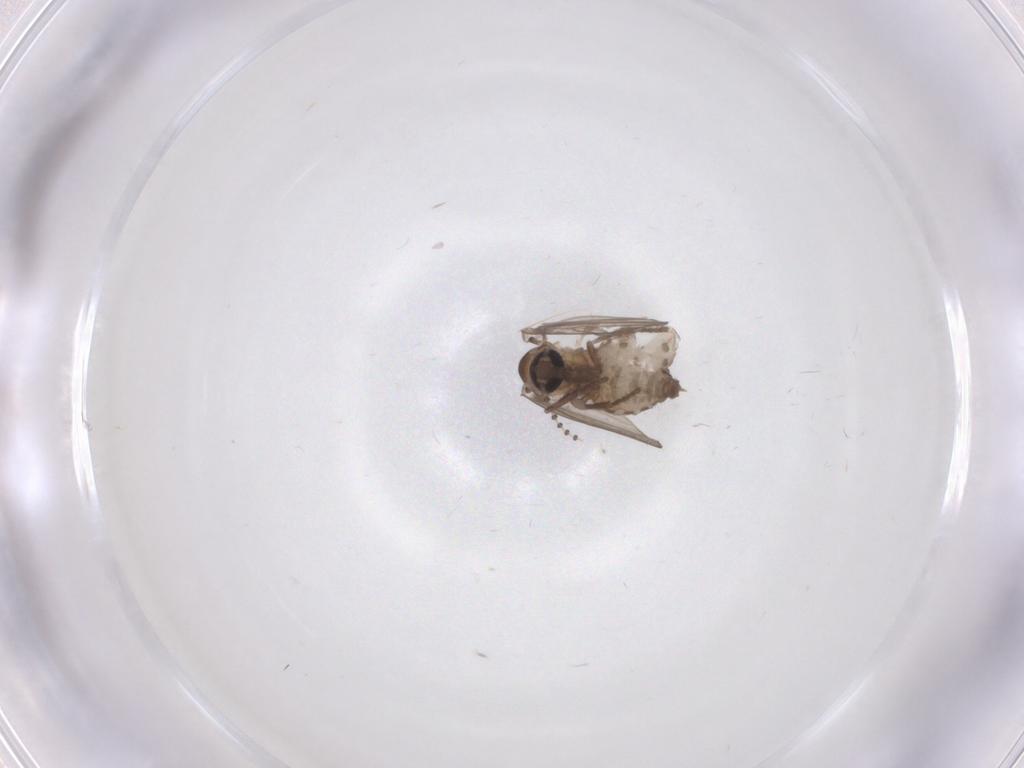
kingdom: Animalia
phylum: Arthropoda
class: Insecta
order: Diptera
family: Psychodidae
